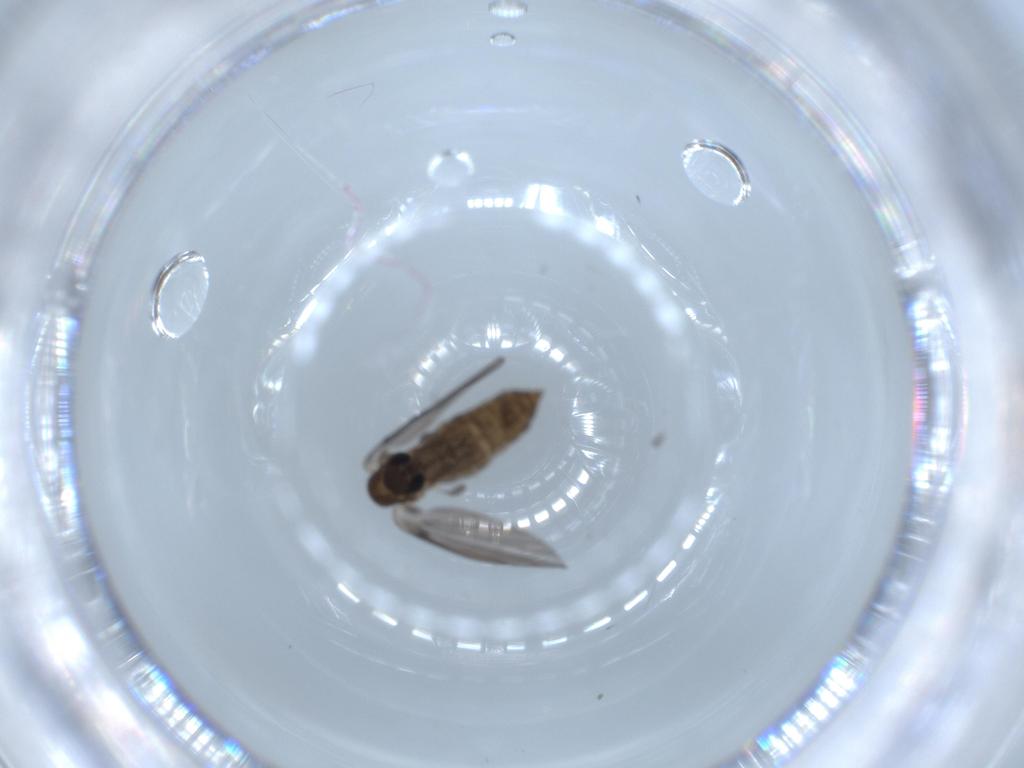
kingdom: Animalia
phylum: Arthropoda
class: Insecta
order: Diptera
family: Psychodidae
